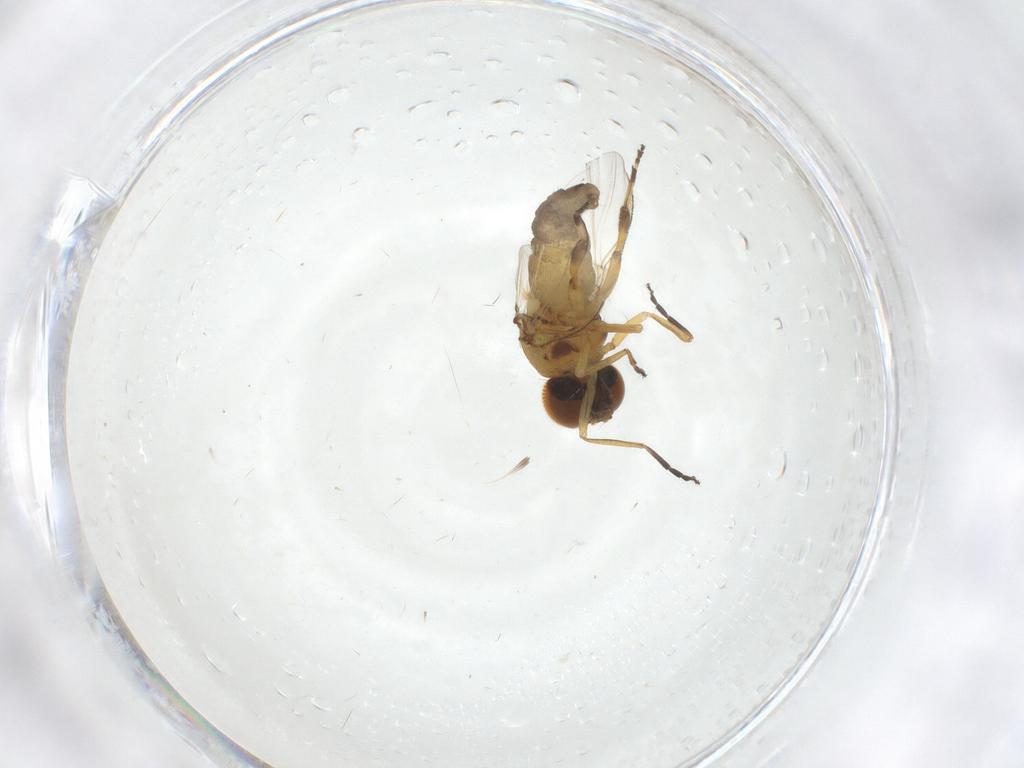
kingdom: Animalia
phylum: Arthropoda
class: Insecta
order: Diptera
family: Simuliidae
